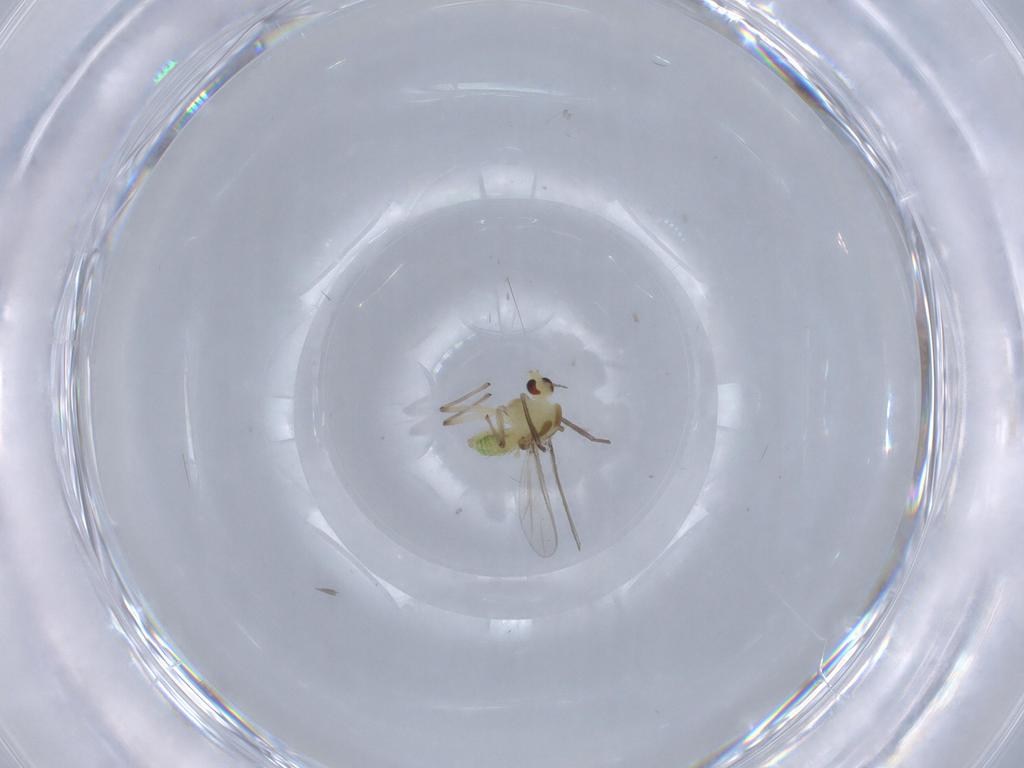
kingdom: Animalia
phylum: Arthropoda
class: Insecta
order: Diptera
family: Chironomidae
